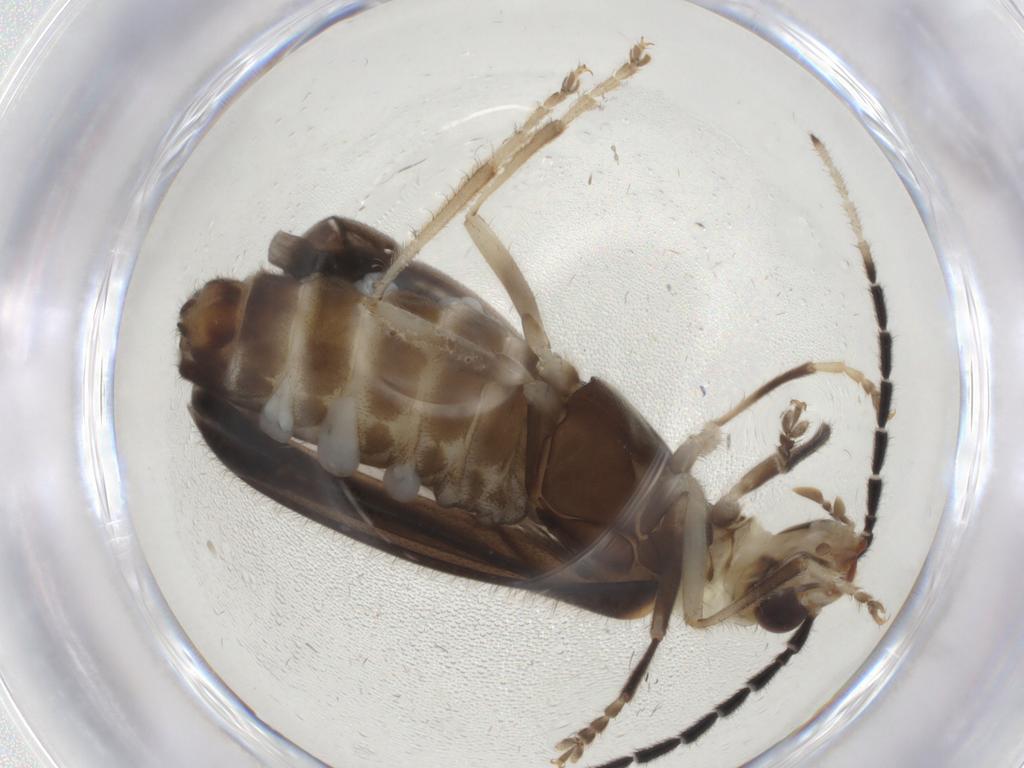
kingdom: Animalia
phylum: Arthropoda
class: Insecta
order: Coleoptera
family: Cantharidae
